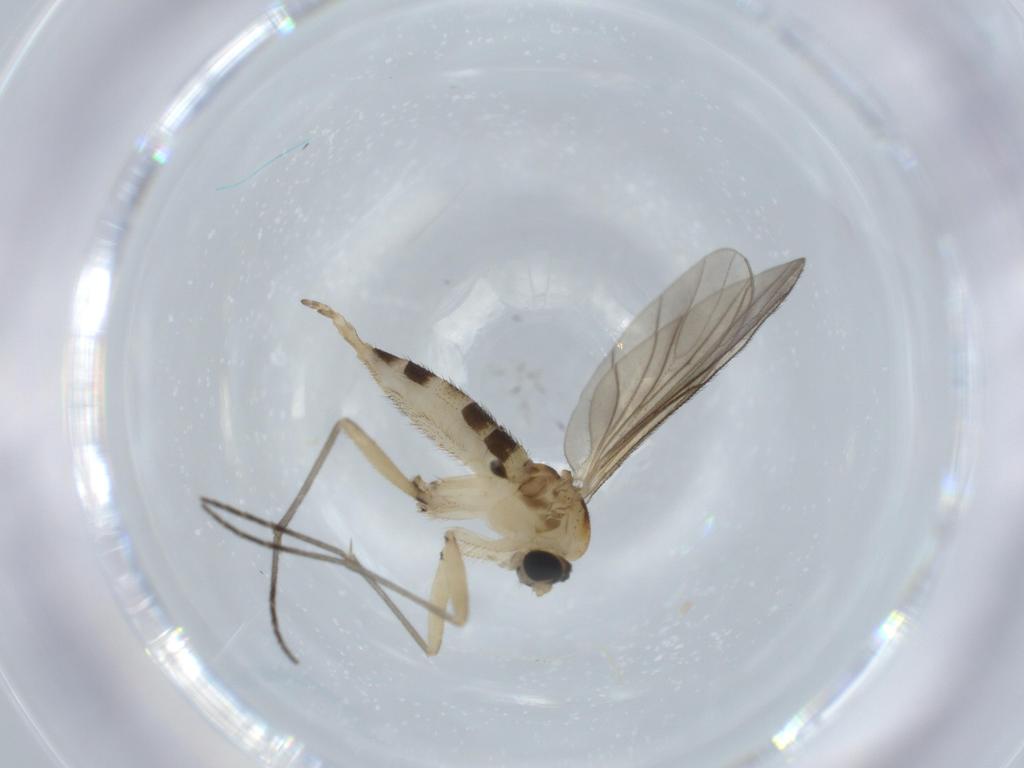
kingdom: Animalia
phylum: Arthropoda
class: Insecta
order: Diptera
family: Sciaridae
